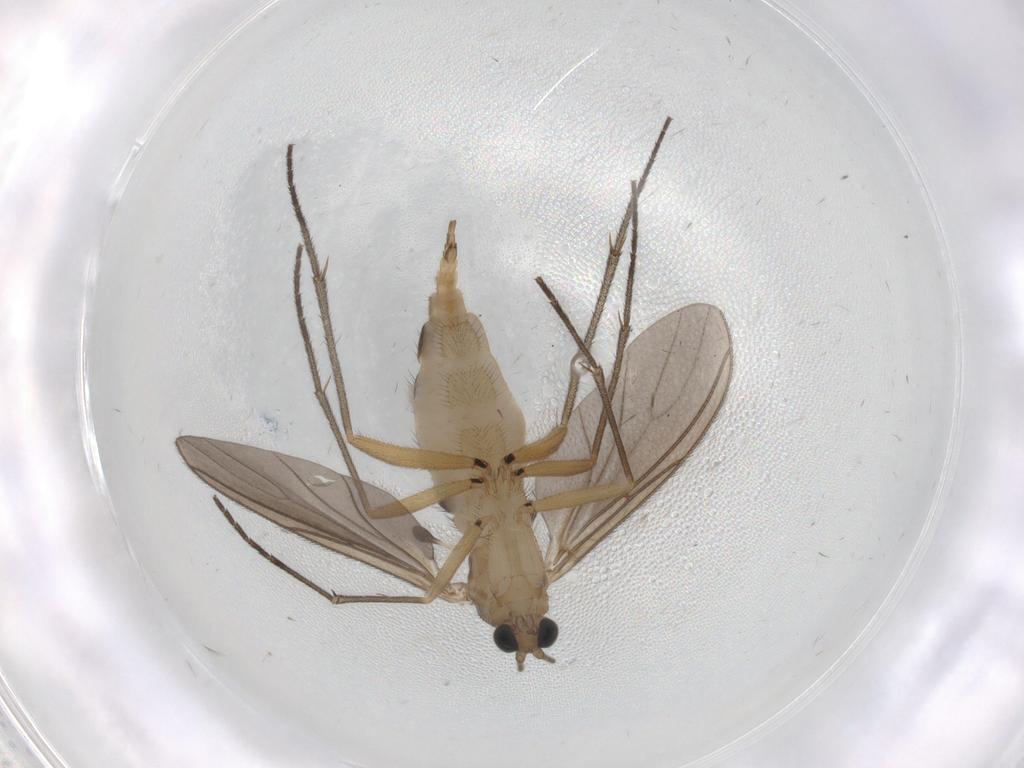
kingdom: Animalia
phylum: Arthropoda
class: Insecta
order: Diptera
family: Sciaridae
